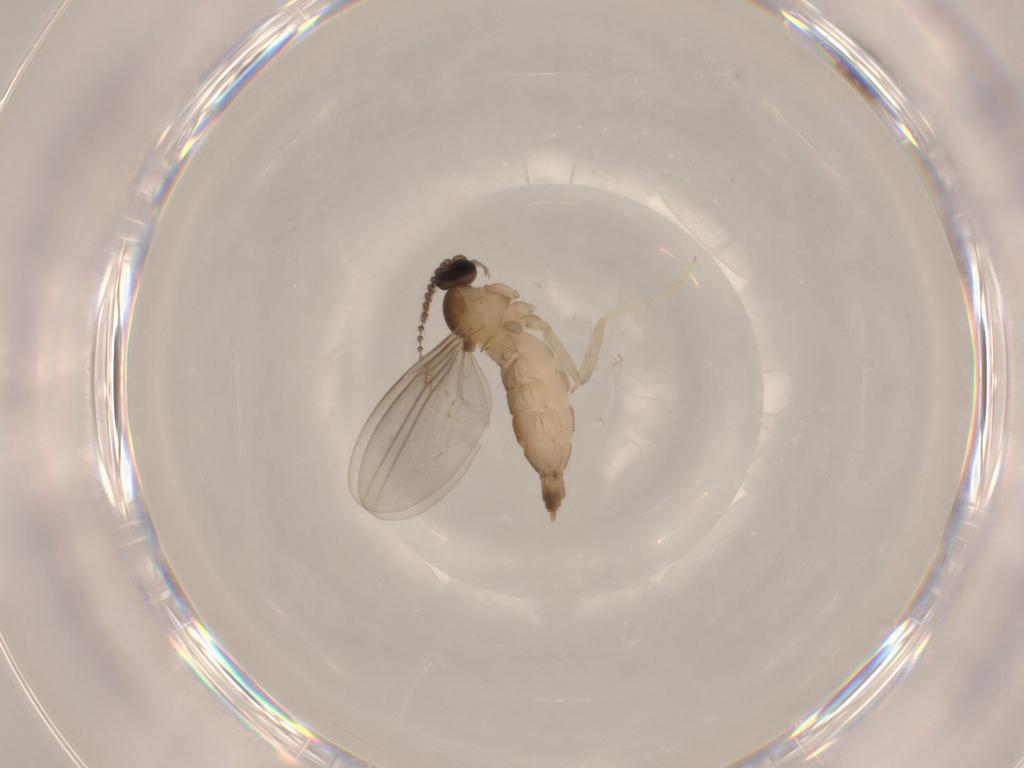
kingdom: Animalia
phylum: Arthropoda
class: Insecta
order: Diptera
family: Cecidomyiidae
